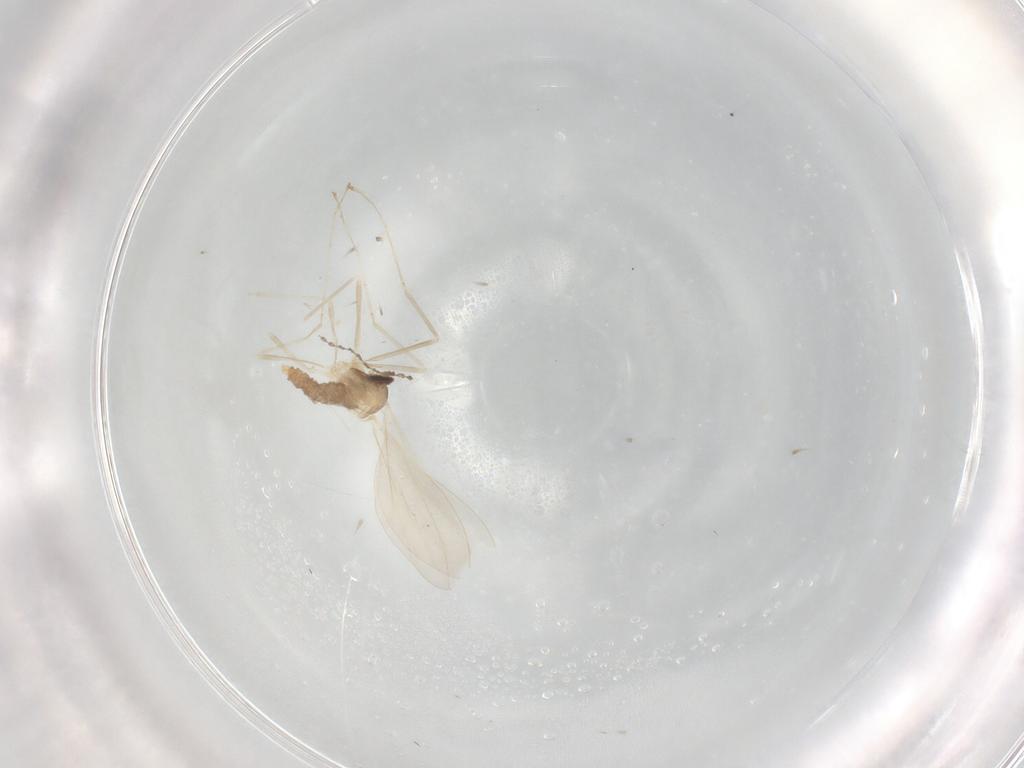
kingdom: Animalia
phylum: Arthropoda
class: Insecta
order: Diptera
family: Cecidomyiidae
